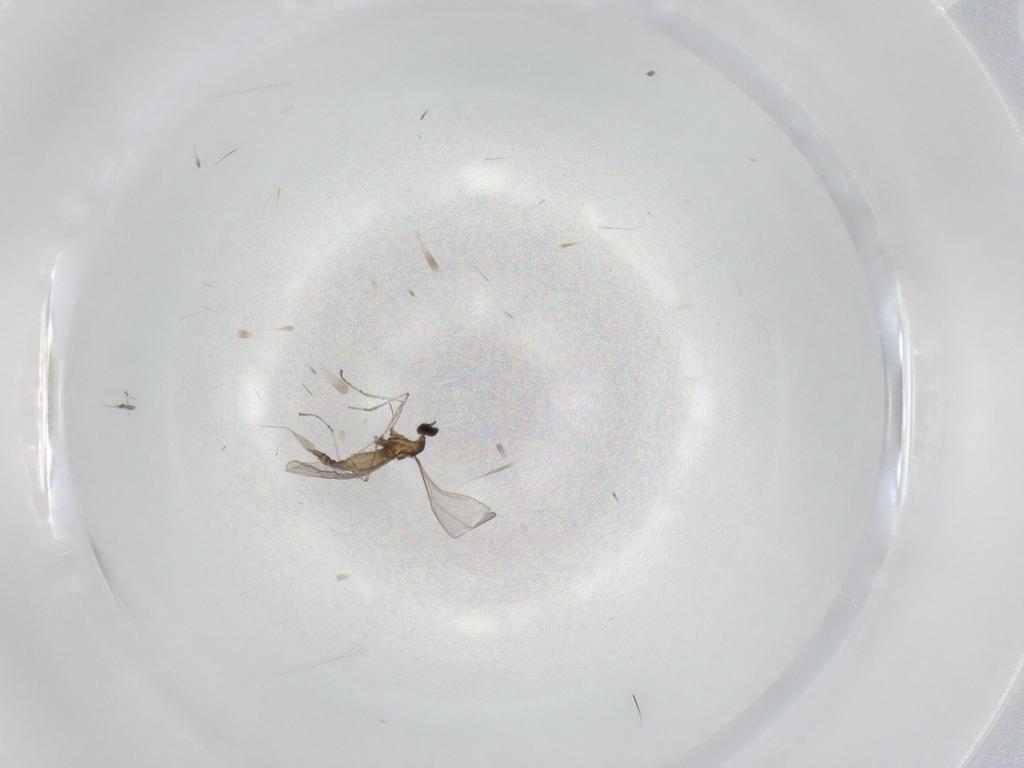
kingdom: Animalia
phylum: Arthropoda
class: Insecta
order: Diptera
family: Cecidomyiidae
